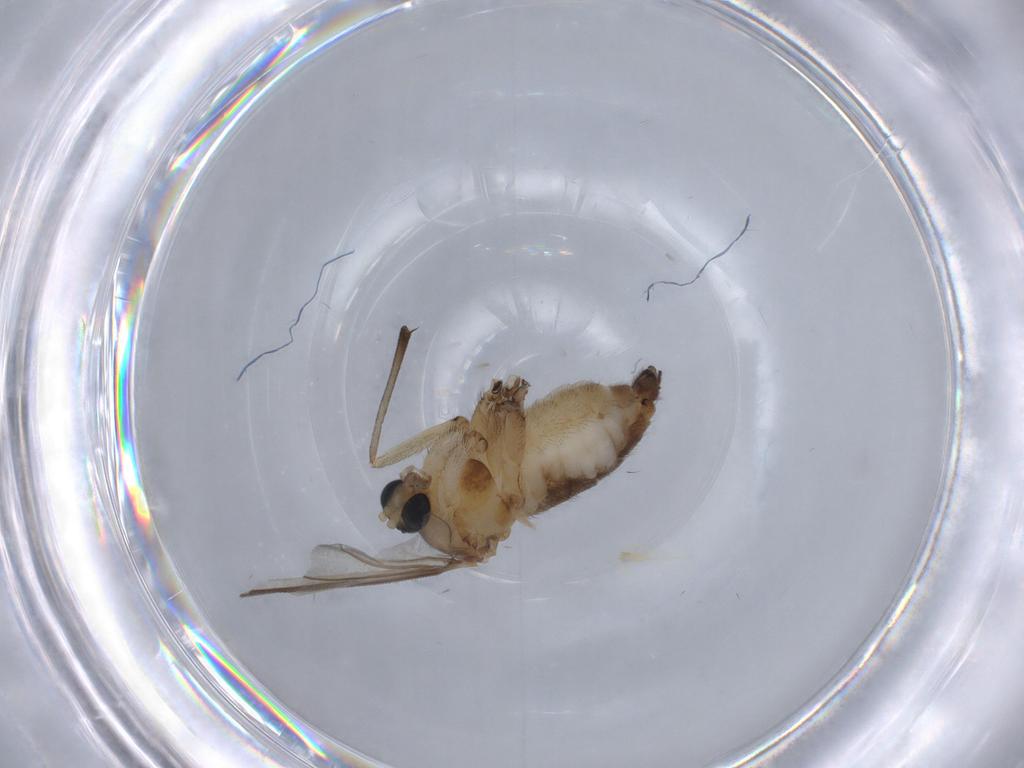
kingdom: Animalia
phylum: Arthropoda
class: Insecta
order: Diptera
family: Sciaridae
